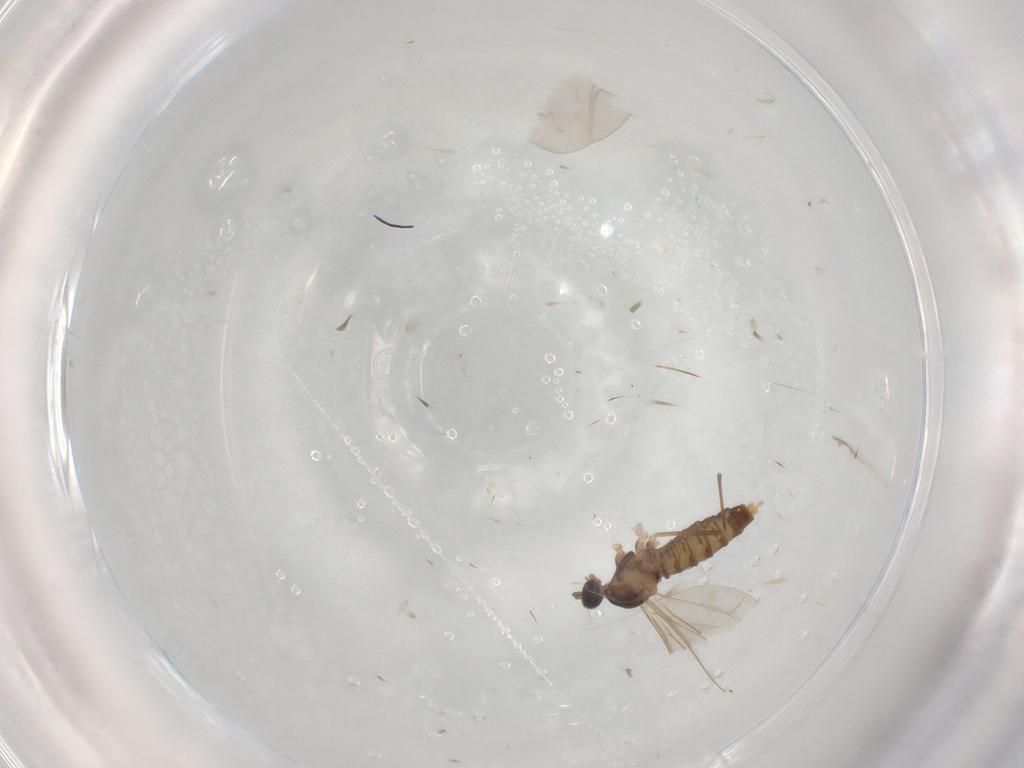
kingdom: Animalia
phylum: Arthropoda
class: Insecta
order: Diptera
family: Cecidomyiidae
